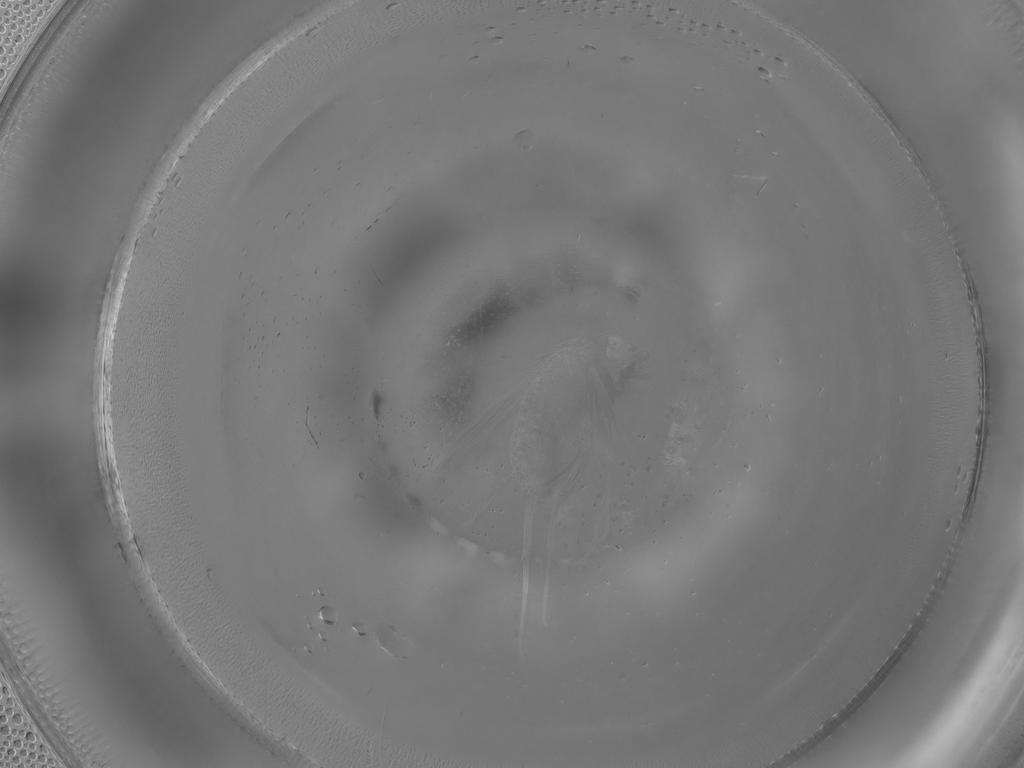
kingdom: Animalia
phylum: Arthropoda
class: Insecta
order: Diptera
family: Phoridae
